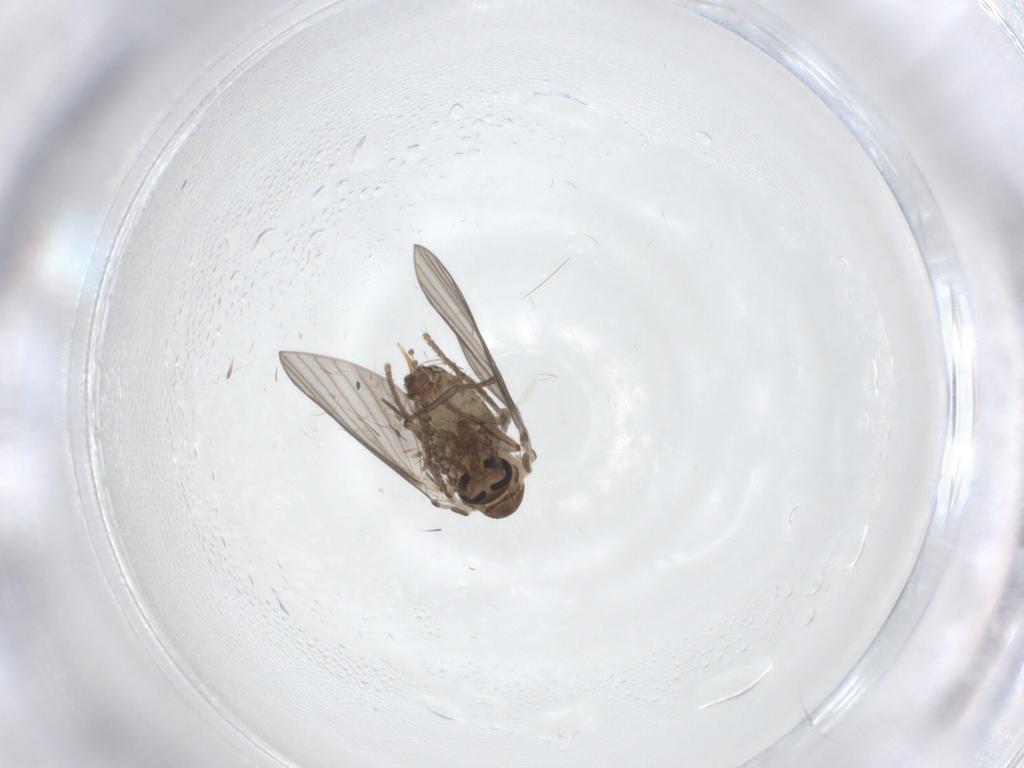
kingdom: Animalia
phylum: Arthropoda
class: Insecta
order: Diptera
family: Psychodidae
